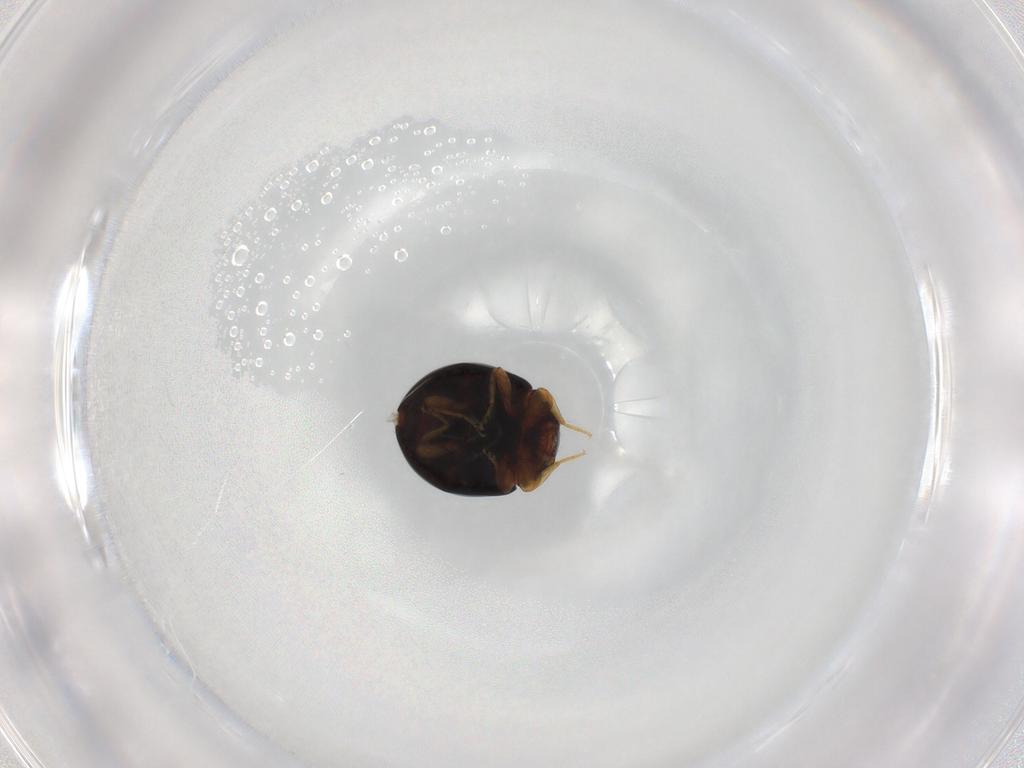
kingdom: Animalia
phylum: Arthropoda
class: Insecta
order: Coleoptera
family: Coccinellidae
